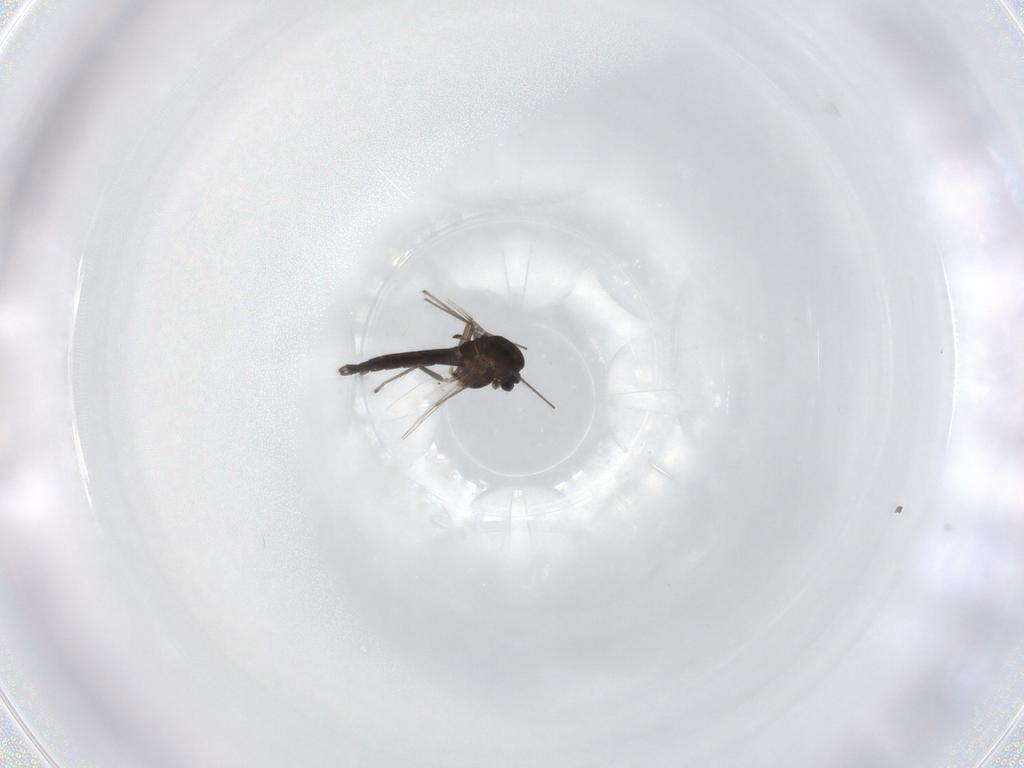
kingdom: Animalia
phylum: Arthropoda
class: Insecta
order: Diptera
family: Chironomidae
